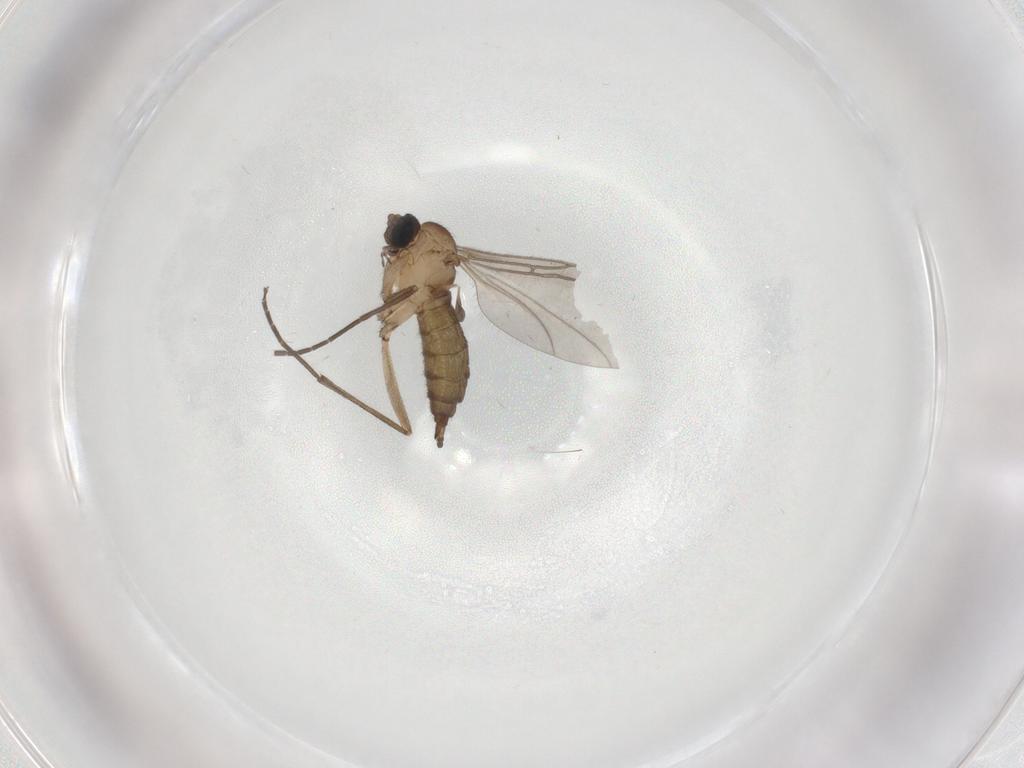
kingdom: Animalia
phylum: Arthropoda
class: Insecta
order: Diptera
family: Sciaridae
